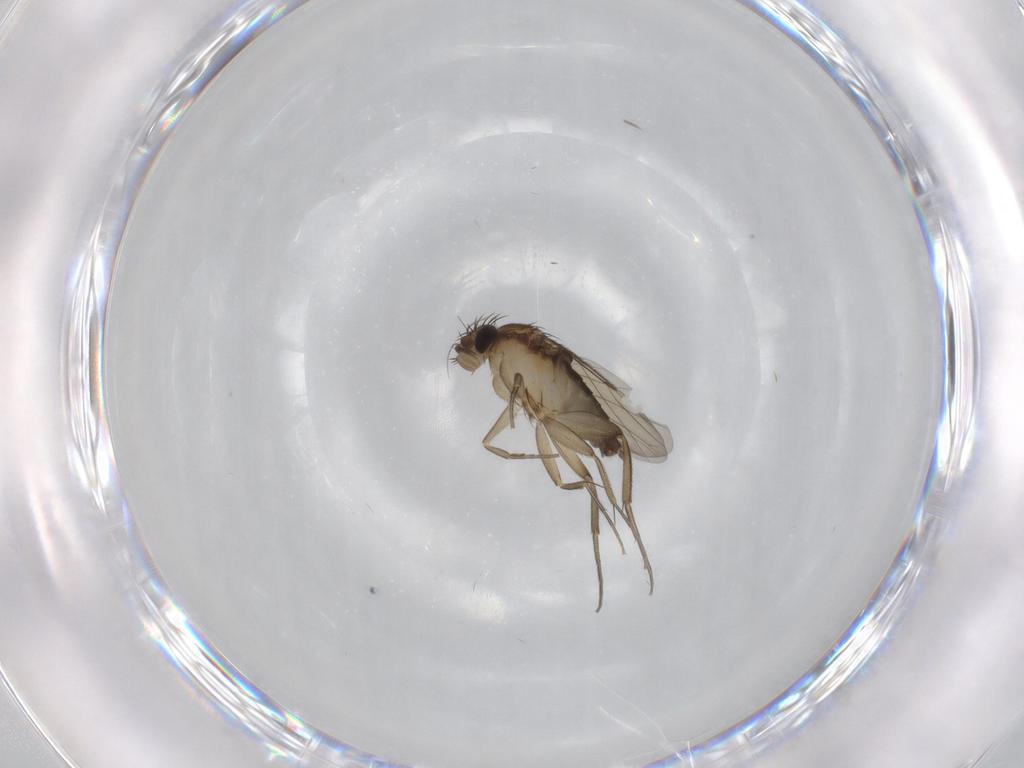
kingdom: Animalia
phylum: Arthropoda
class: Insecta
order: Diptera
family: Phoridae
